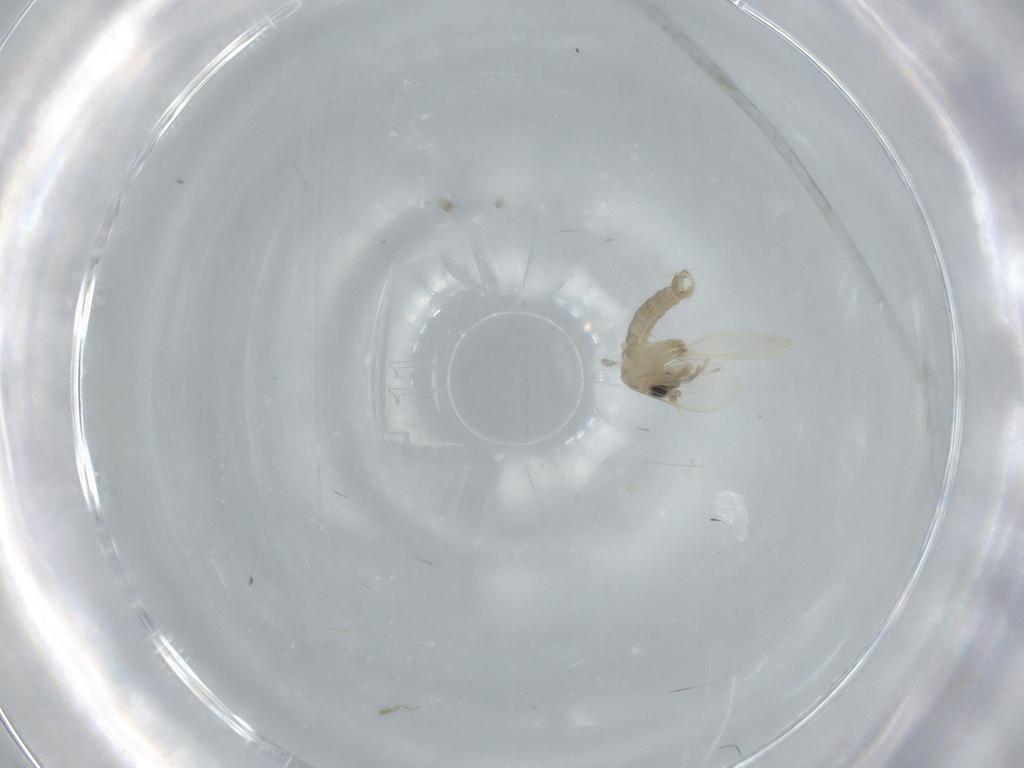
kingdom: Animalia
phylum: Arthropoda
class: Insecta
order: Diptera
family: Psychodidae
